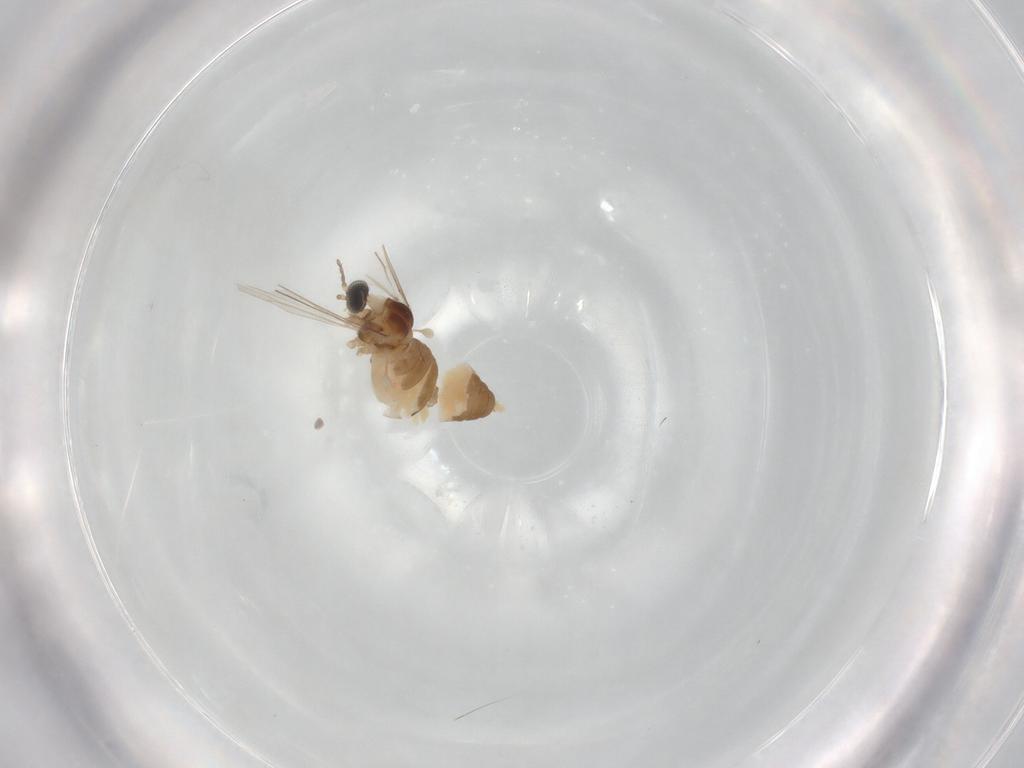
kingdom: Animalia
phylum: Arthropoda
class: Insecta
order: Diptera
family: Cecidomyiidae
